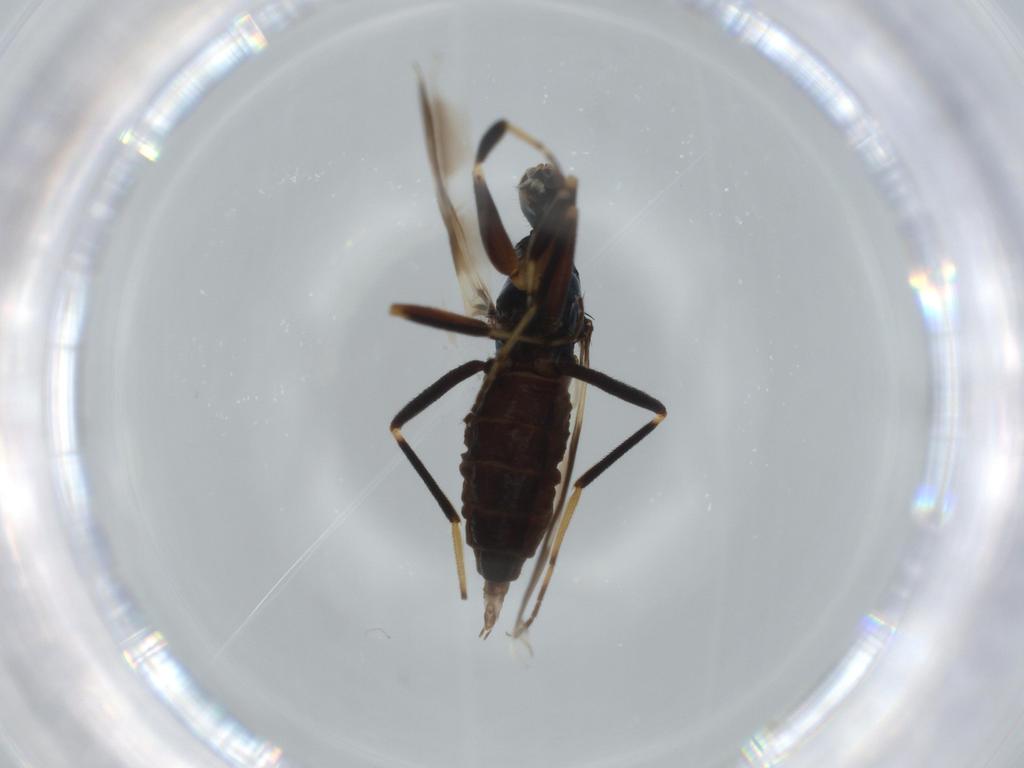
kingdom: Animalia
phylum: Arthropoda
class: Insecta
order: Diptera
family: Hybotidae
